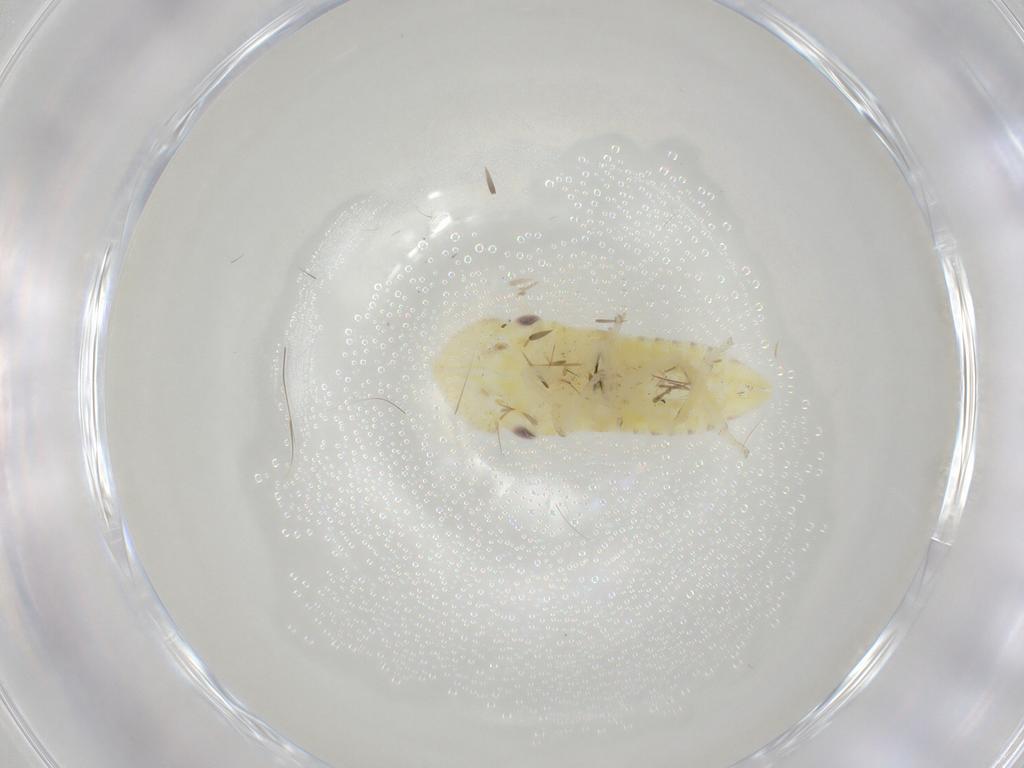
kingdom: Animalia
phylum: Arthropoda
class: Insecta
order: Hemiptera
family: Aleyrodidae
